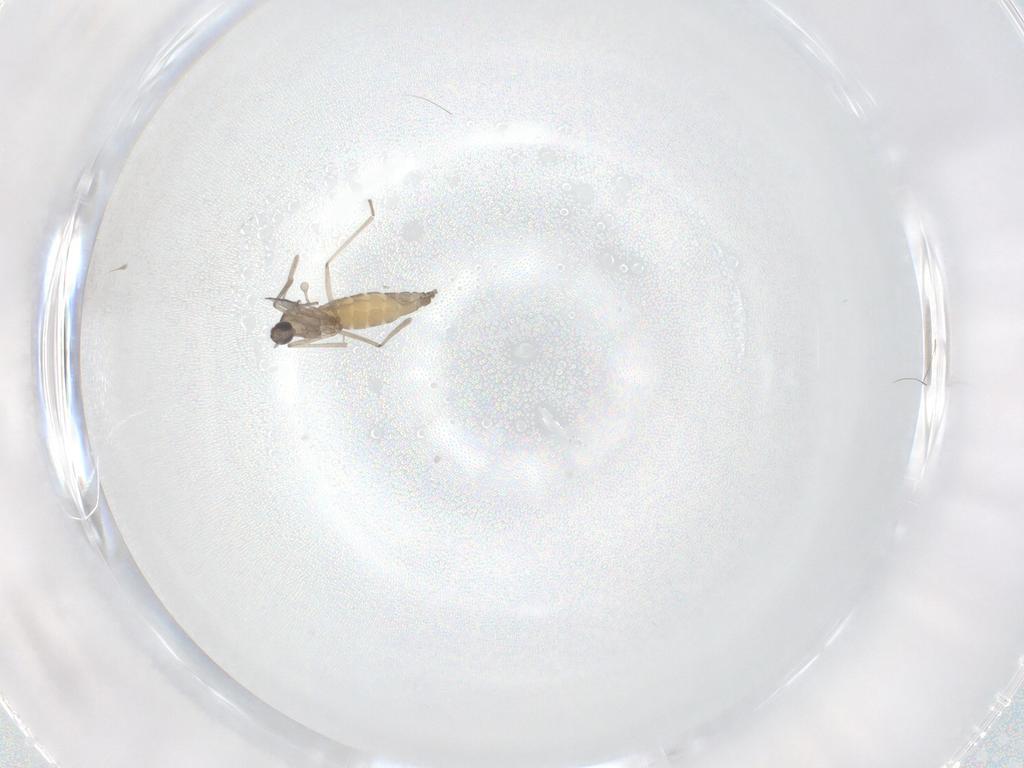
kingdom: Animalia
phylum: Arthropoda
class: Insecta
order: Diptera
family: Cecidomyiidae
